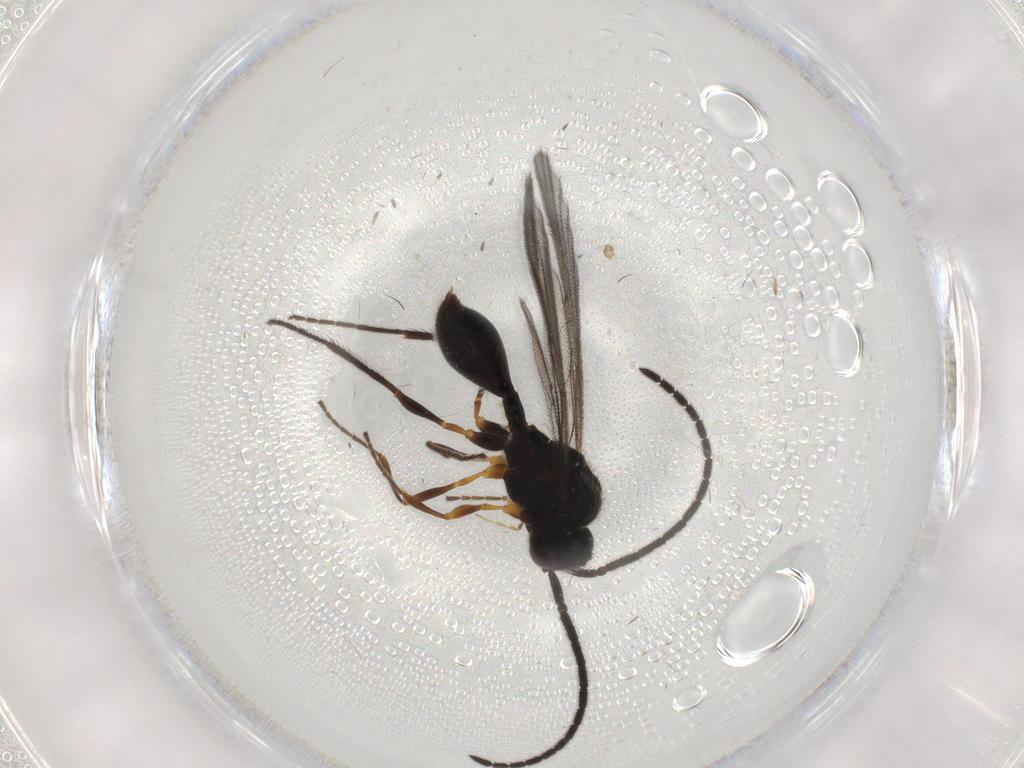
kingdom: Animalia
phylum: Arthropoda
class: Insecta
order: Hymenoptera
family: Diapriidae
